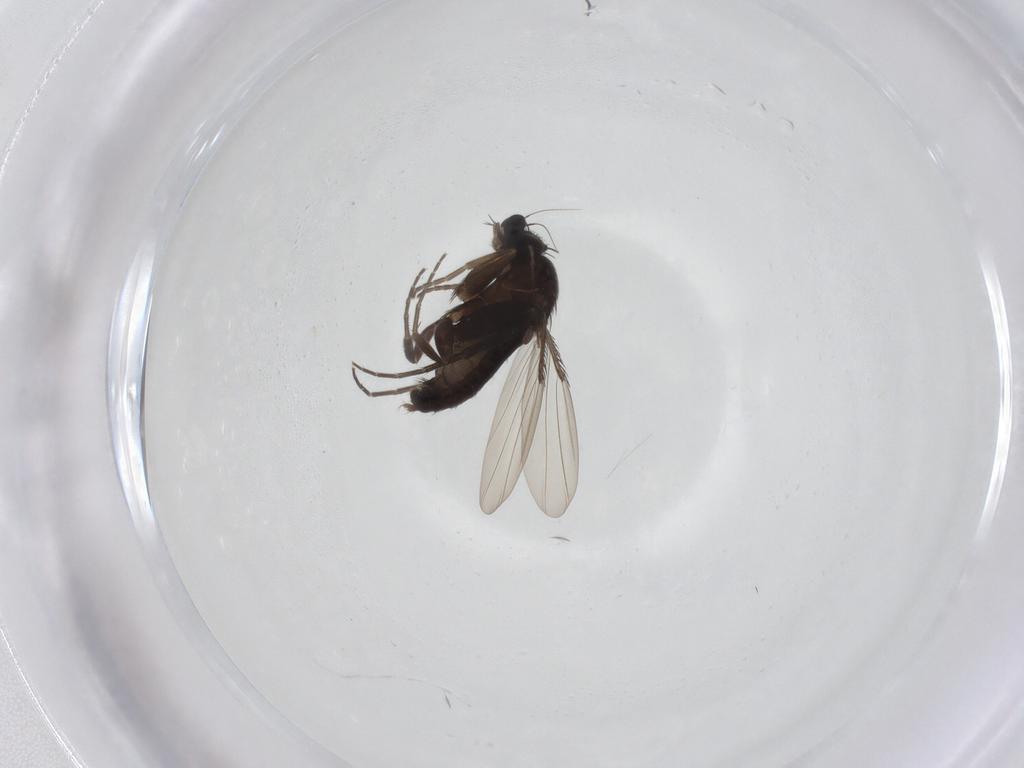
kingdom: Animalia
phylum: Arthropoda
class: Insecta
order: Diptera
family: Phoridae
